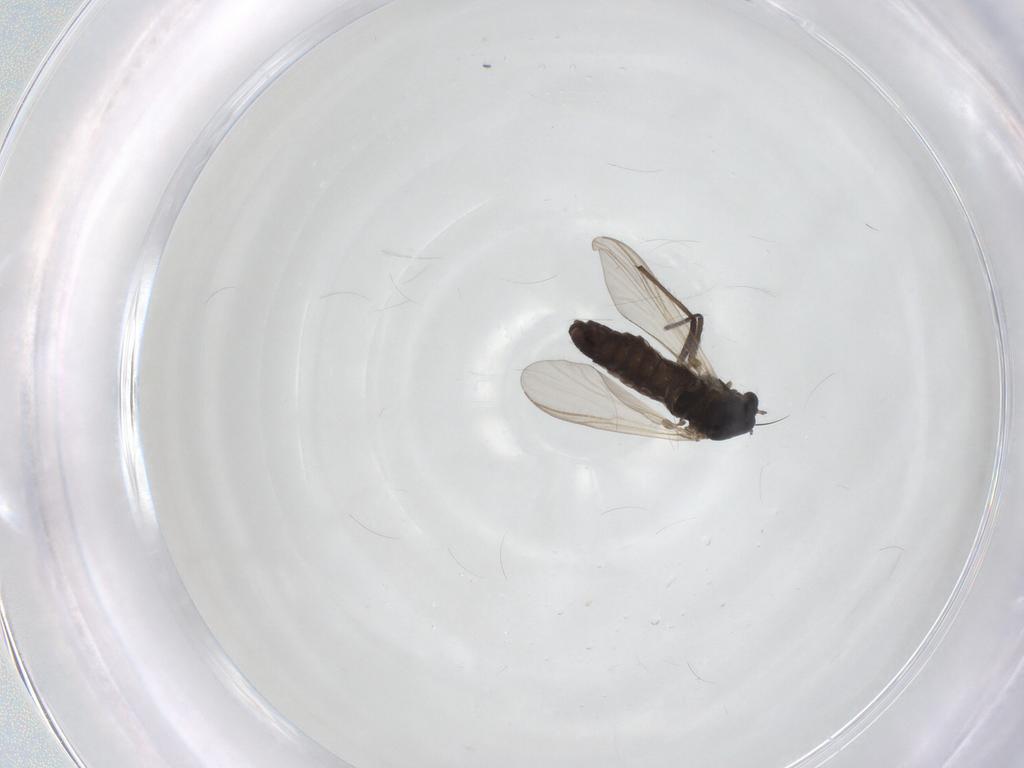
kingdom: Animalia
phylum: Arthropoda
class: Insecta
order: Diptera
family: Chironomidae
